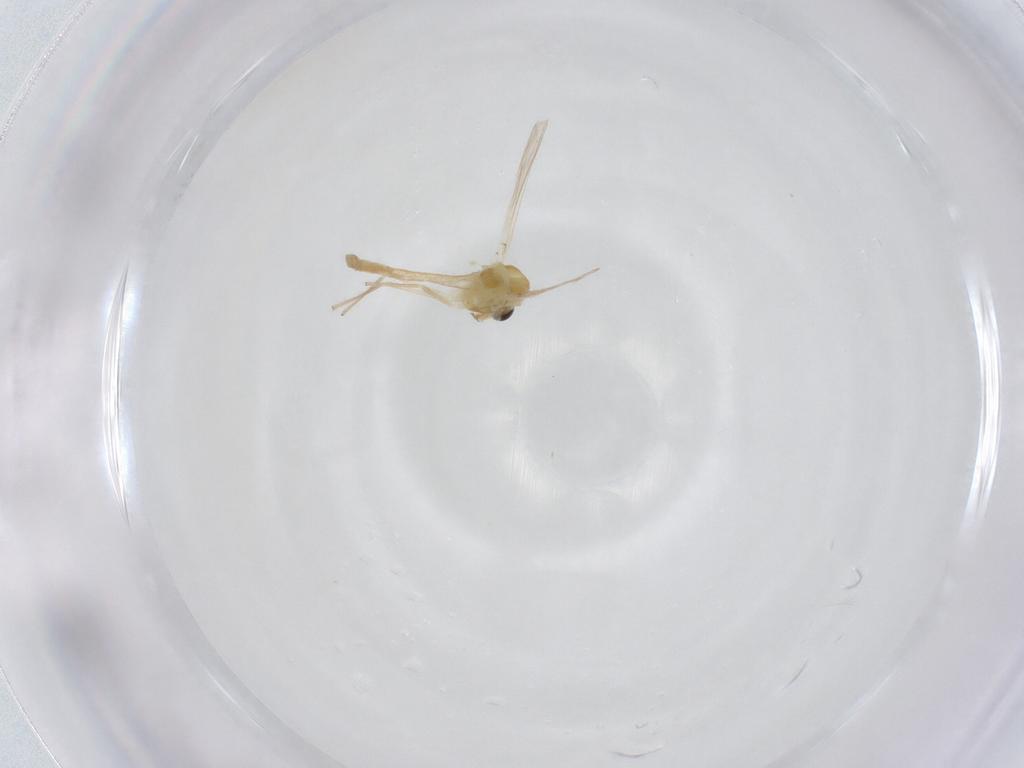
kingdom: Animalia
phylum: Arthropoda
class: Insecta
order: Diptera
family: Chironomidae
